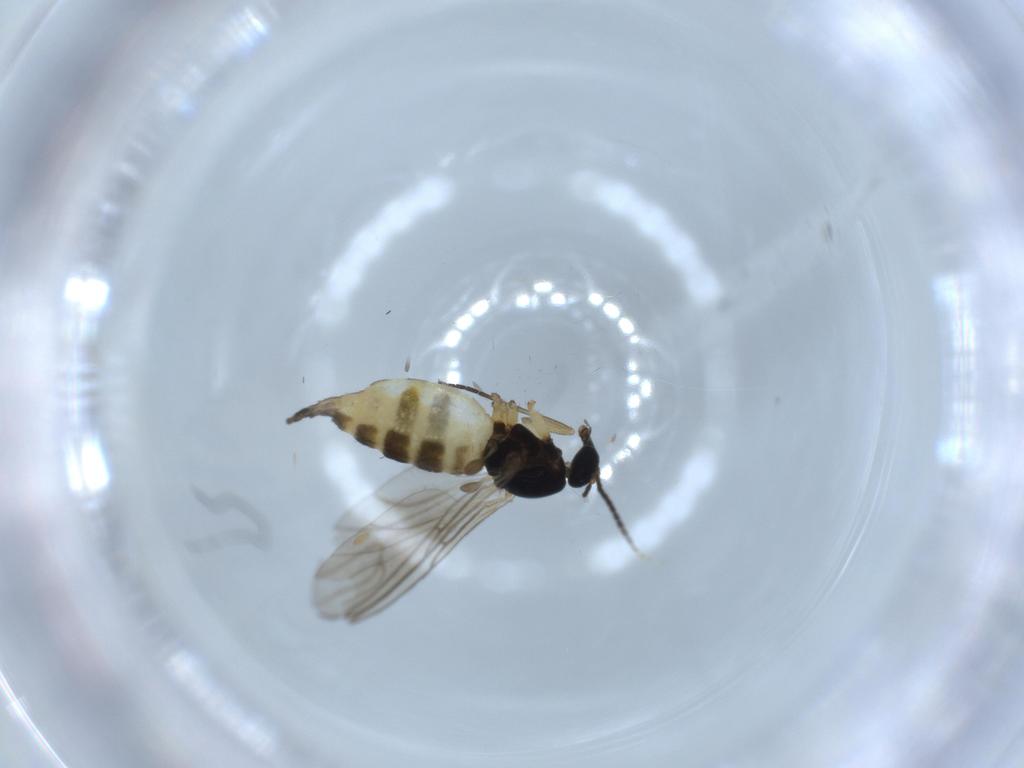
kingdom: Animalia
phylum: Arthropoda
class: Insecta
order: Diptera
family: Sciaridae
